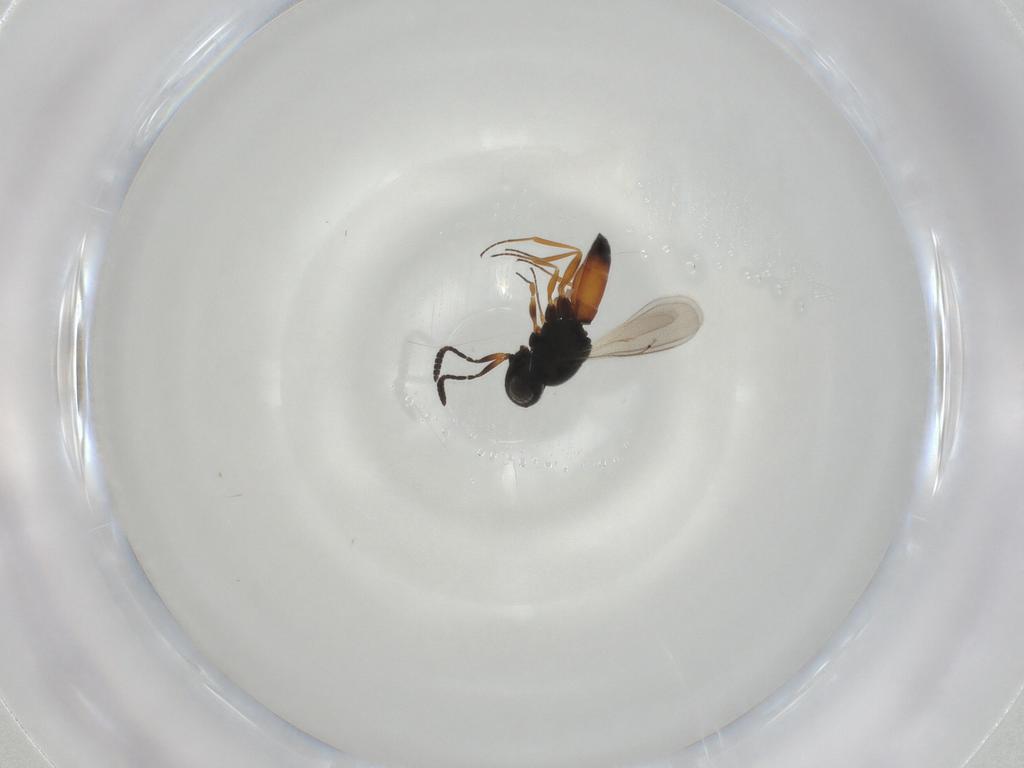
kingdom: Animalia
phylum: Arthropoda
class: Insecta
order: Hymenoptera
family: Scelionidae
